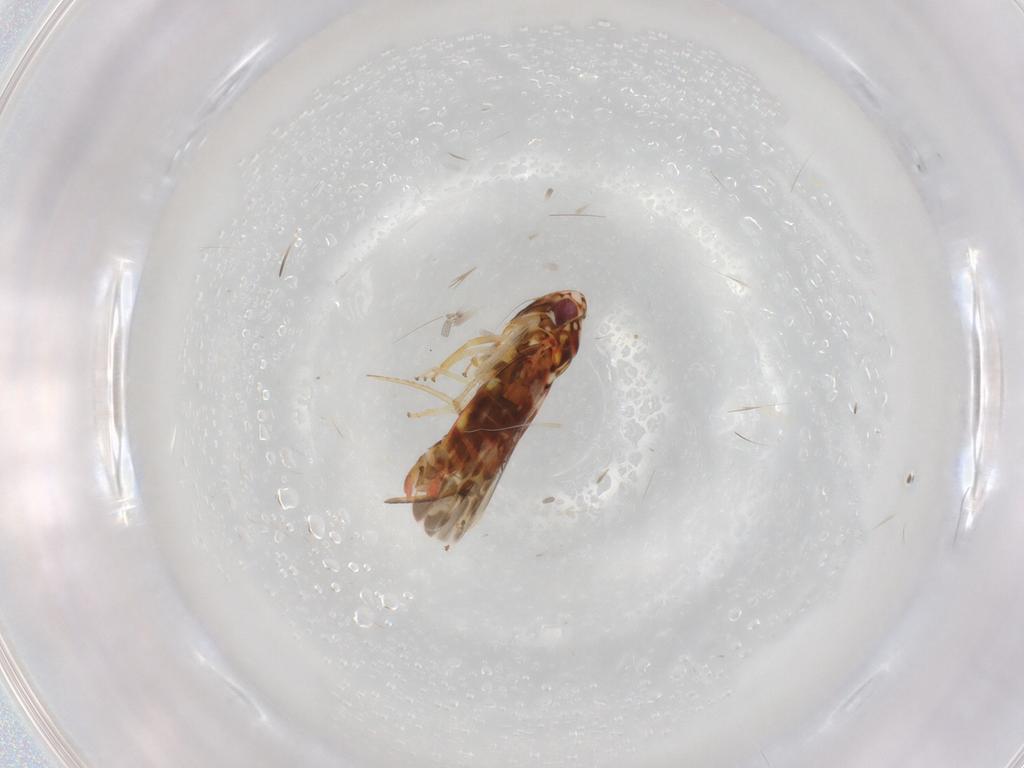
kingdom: Animalia
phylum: Arthropoda
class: Insecta
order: Hemiptera
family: Cicadellidae
